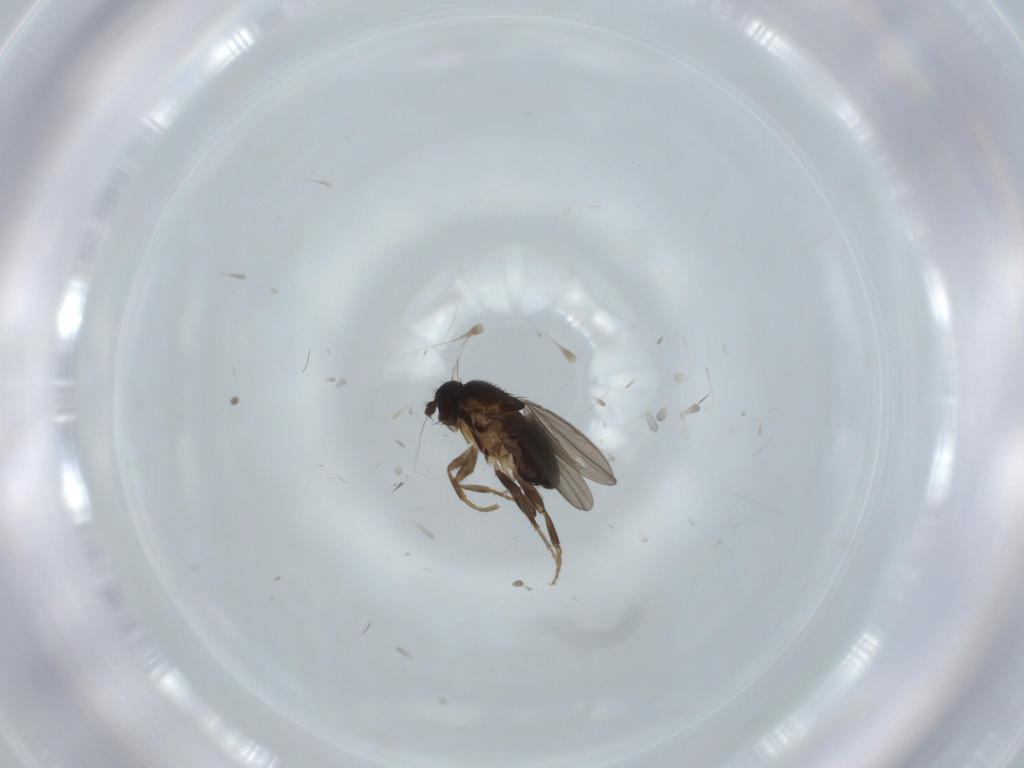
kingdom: Animalia
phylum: Arthropoda
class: Insecta
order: Diptera
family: Sphaeroceridae
